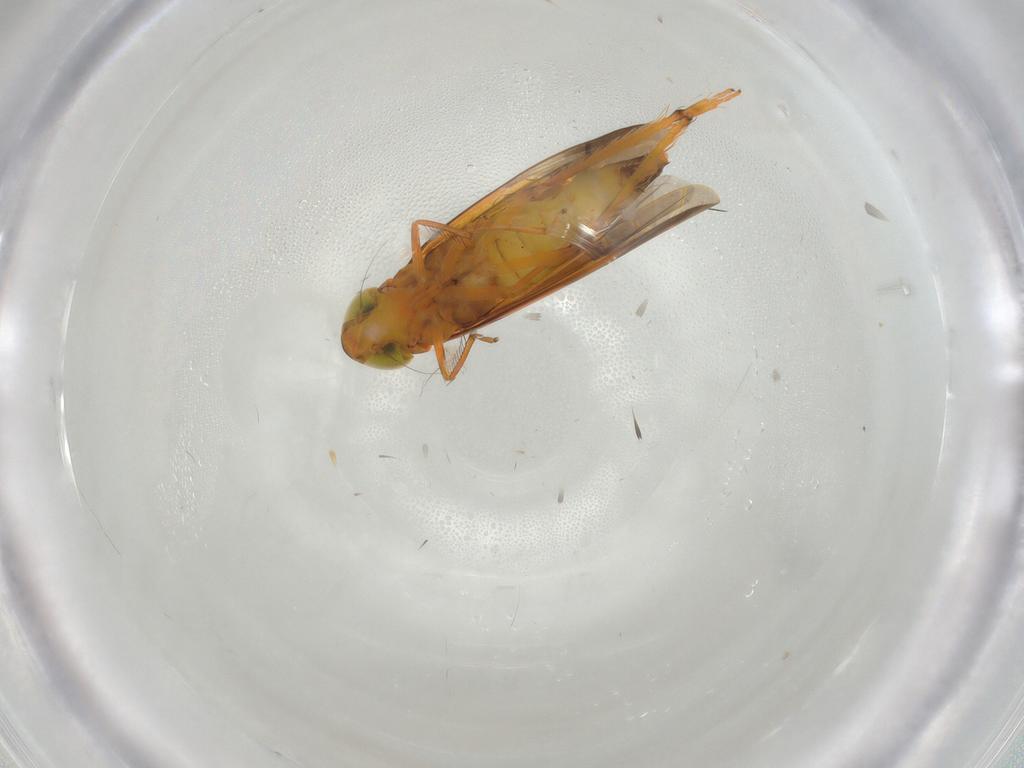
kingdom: Animalia
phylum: Arthropoda
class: Insecta
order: Hemiptera
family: Cicadellidae
